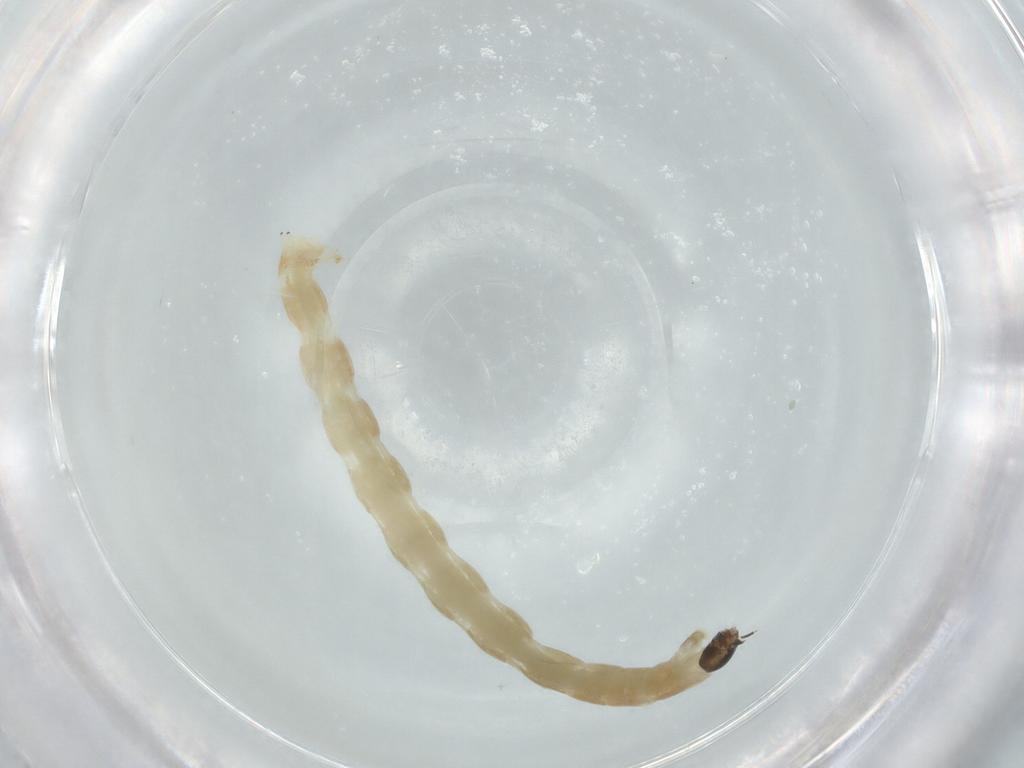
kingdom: Animalia
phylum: Arthropoda
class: Insecta
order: Diptera
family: Chironomidae
